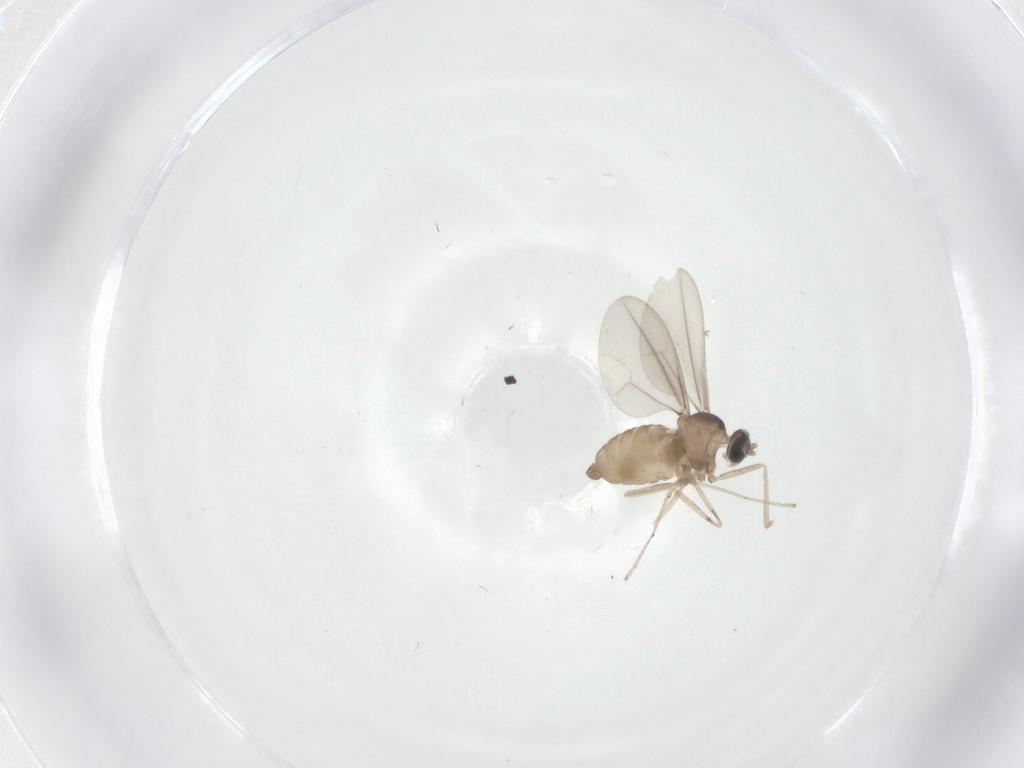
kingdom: Animalia
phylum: Arthropoda
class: Insecta
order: Diptera
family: Cecidomyiidae
